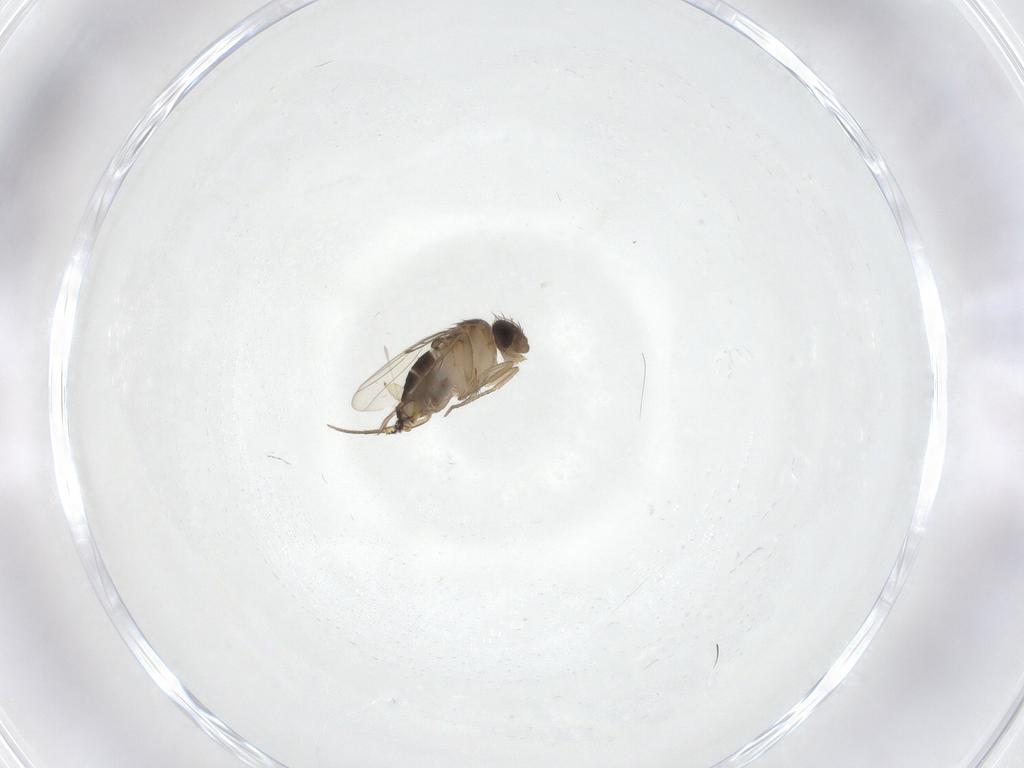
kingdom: Animalia
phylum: Arthropoda
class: Insecta
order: Diptera
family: Phoridae
